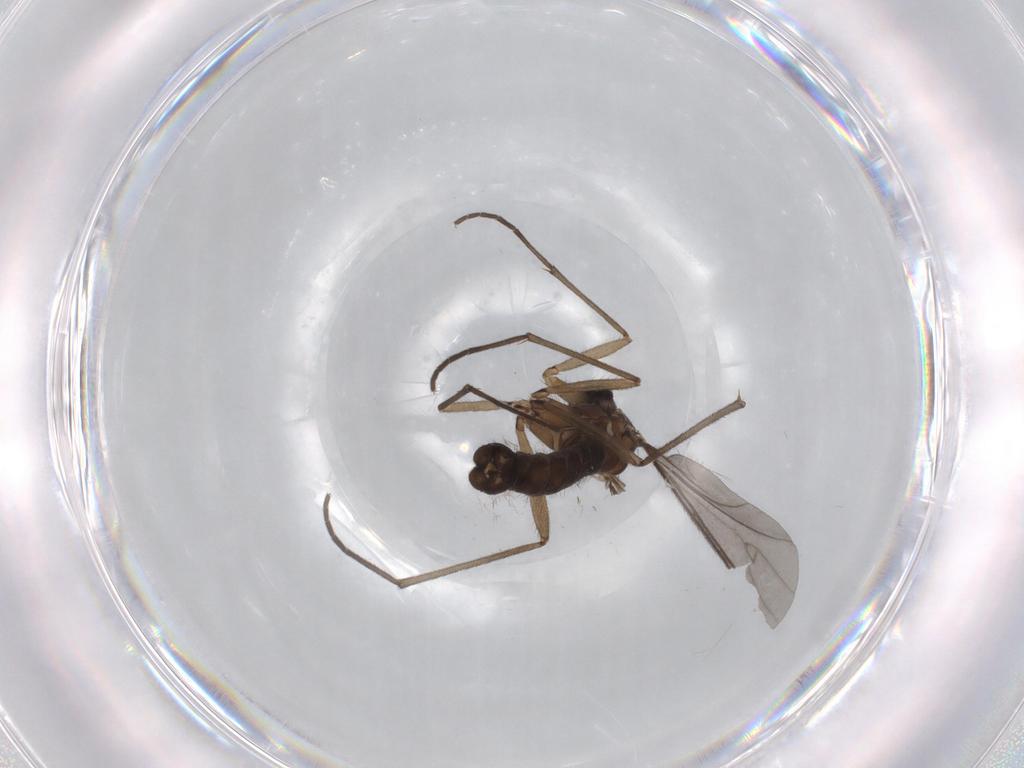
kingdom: Animalia
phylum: Arthropoda
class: Insecta
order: Diptera
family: Sciaridae
